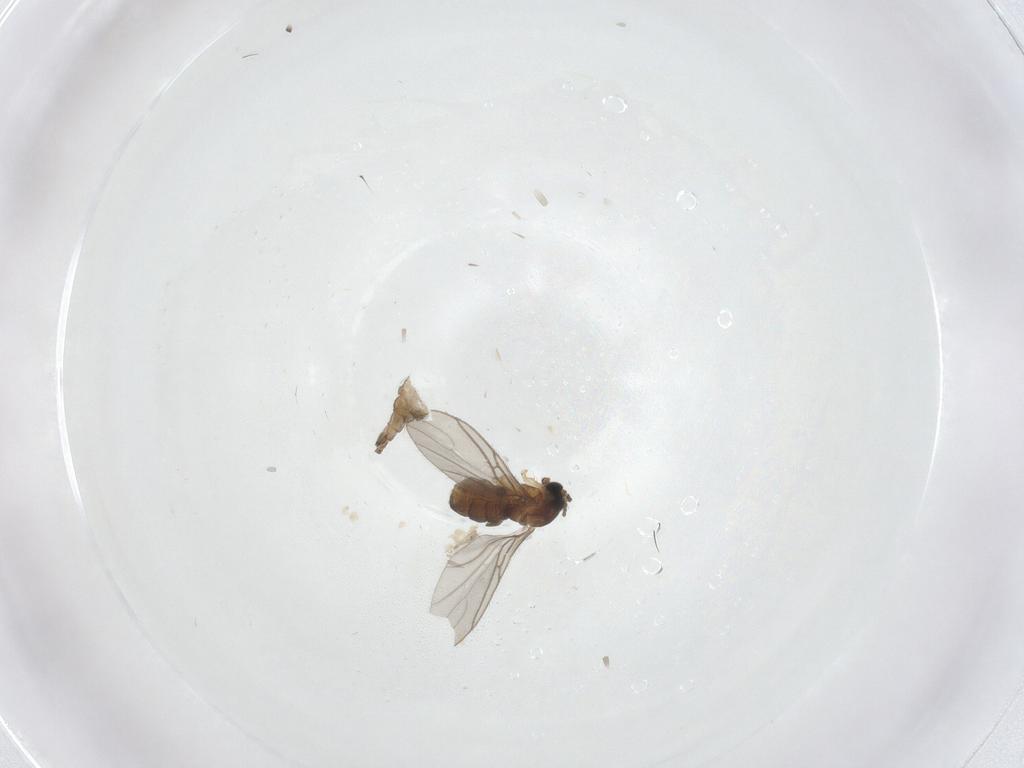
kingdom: Animalia
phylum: Arthropoda
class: Insecta
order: Diptera
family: Sciaridae
